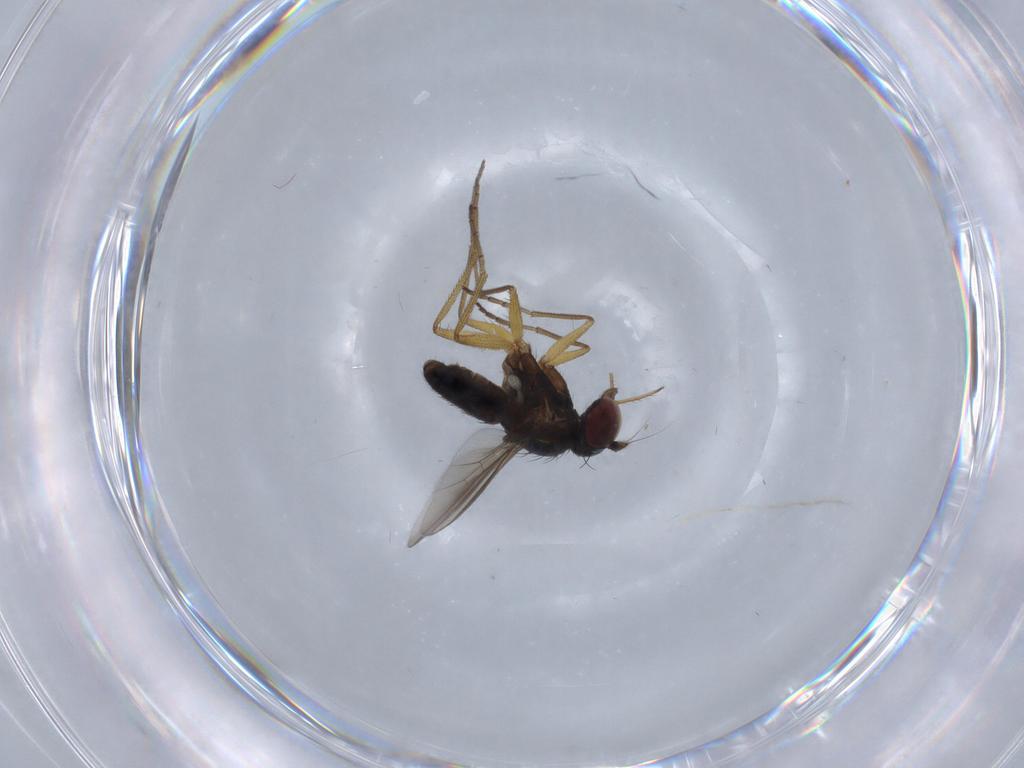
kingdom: Animalia
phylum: Arthropoda
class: Insecta
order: Diptera
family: Dolichopodidae
